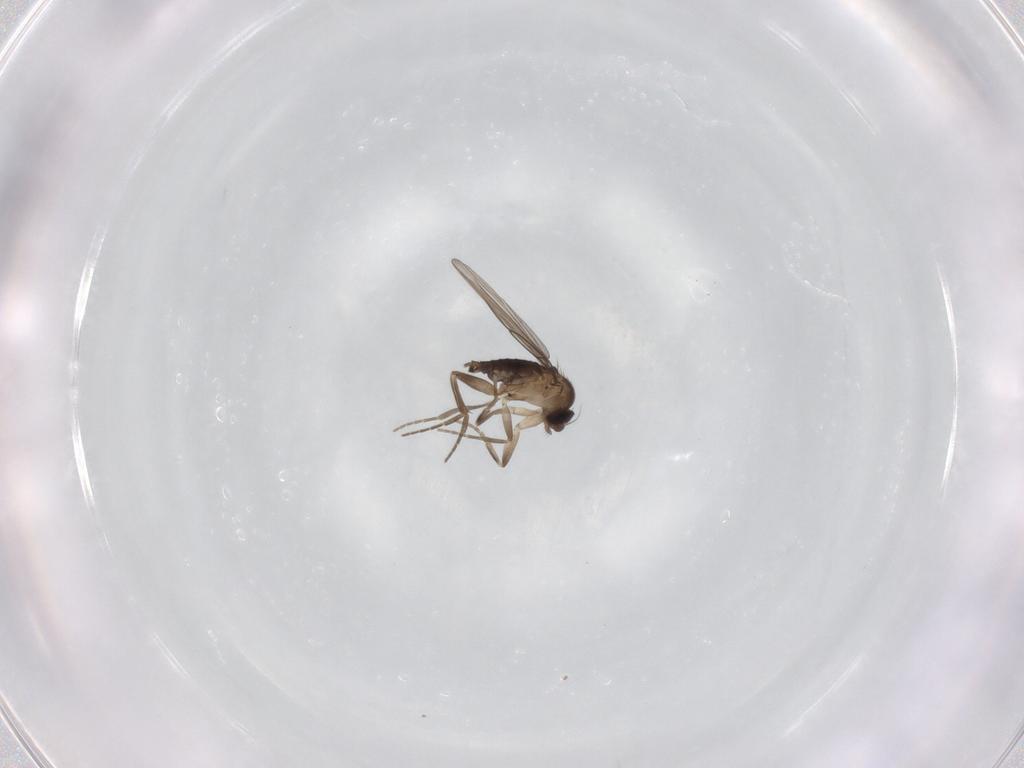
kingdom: Animalia
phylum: Arthropoda
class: Insecta
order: Diptera
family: Phoridae
